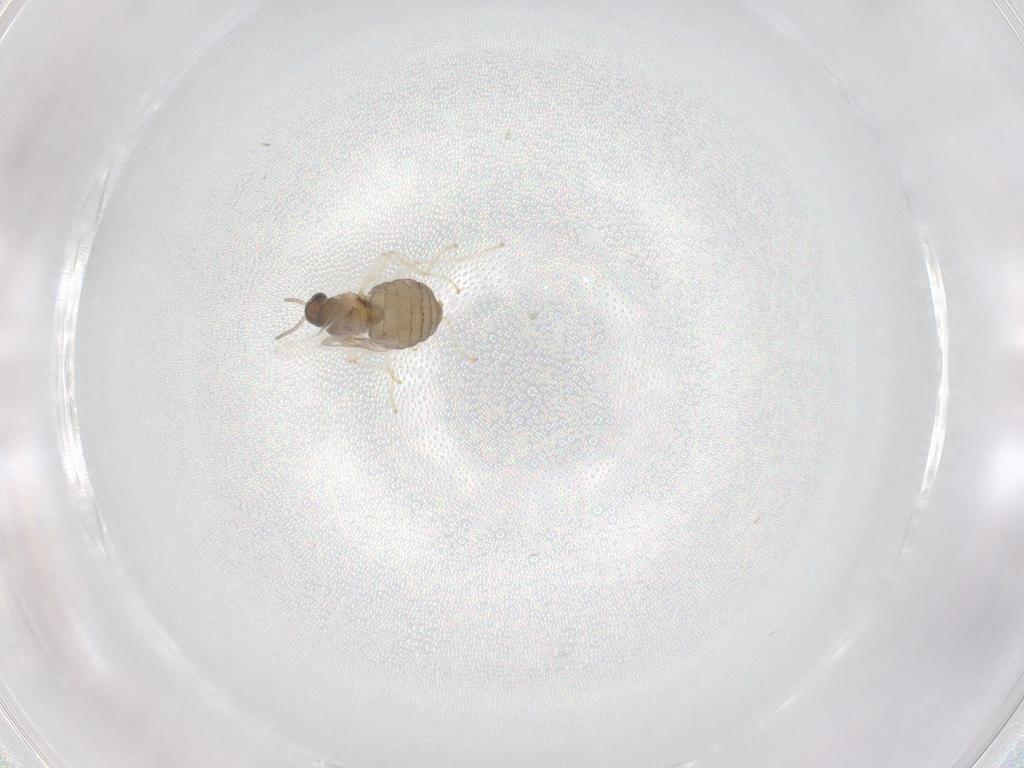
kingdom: Animalia
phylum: Arthropoda
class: Insecta
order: Diptera
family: Cecidomyiidae
